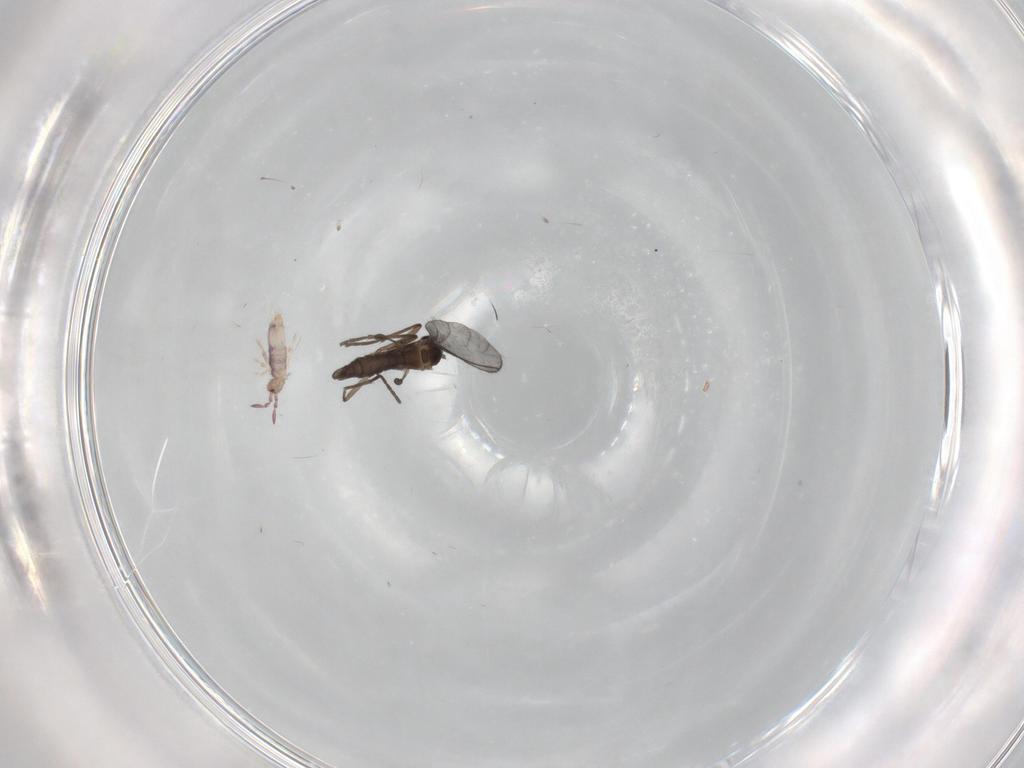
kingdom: Animalia
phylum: Arthropoda
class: Collembola
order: Entomobryomorpha
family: Entomobryidae
